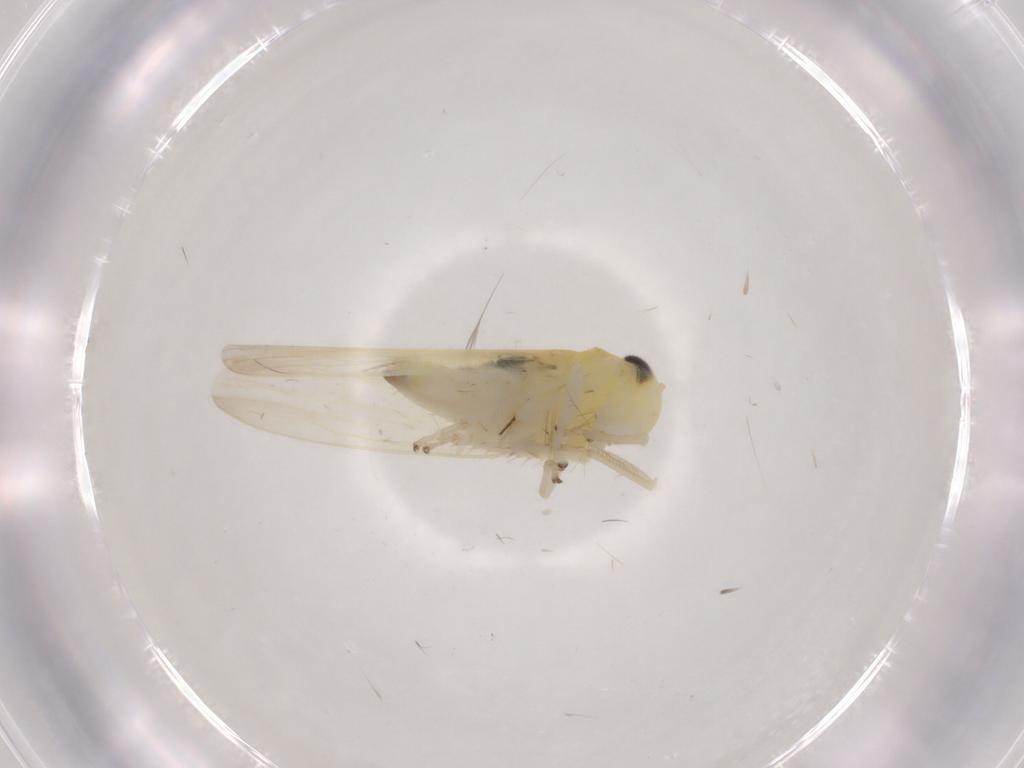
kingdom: Animalia
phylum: Arthropoda
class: Insecta
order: Hemiptera
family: Cicadellidae
